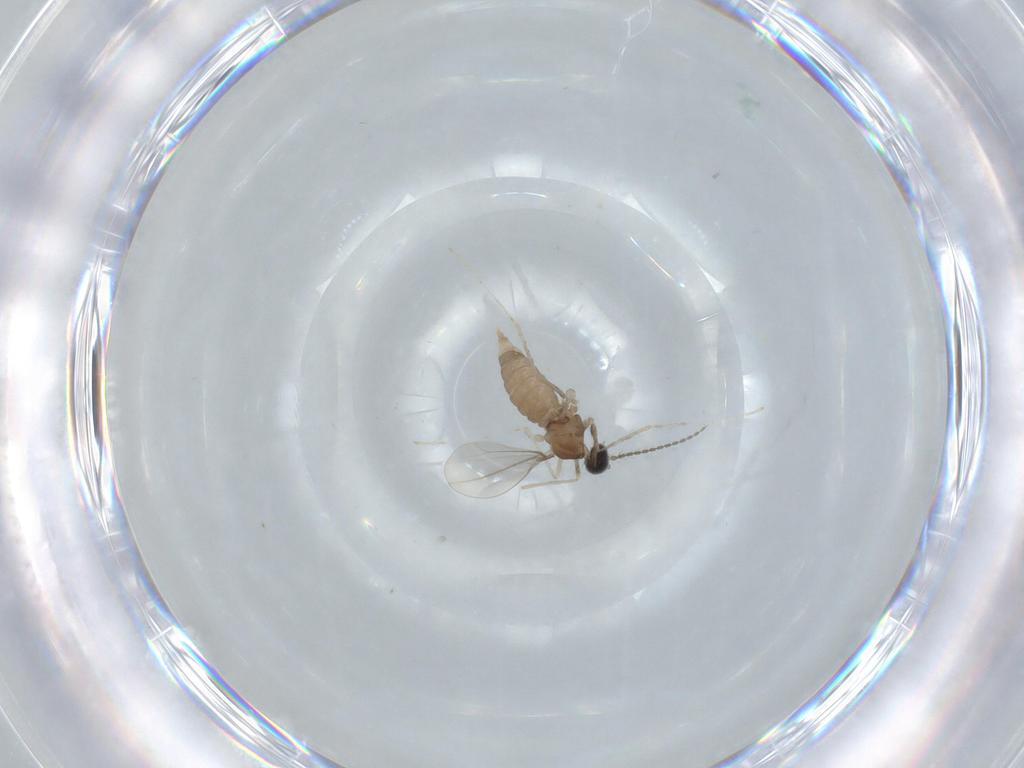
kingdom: Animalia
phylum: Arthropoda
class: Insecta
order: Diptera
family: Cecidomyiidae
